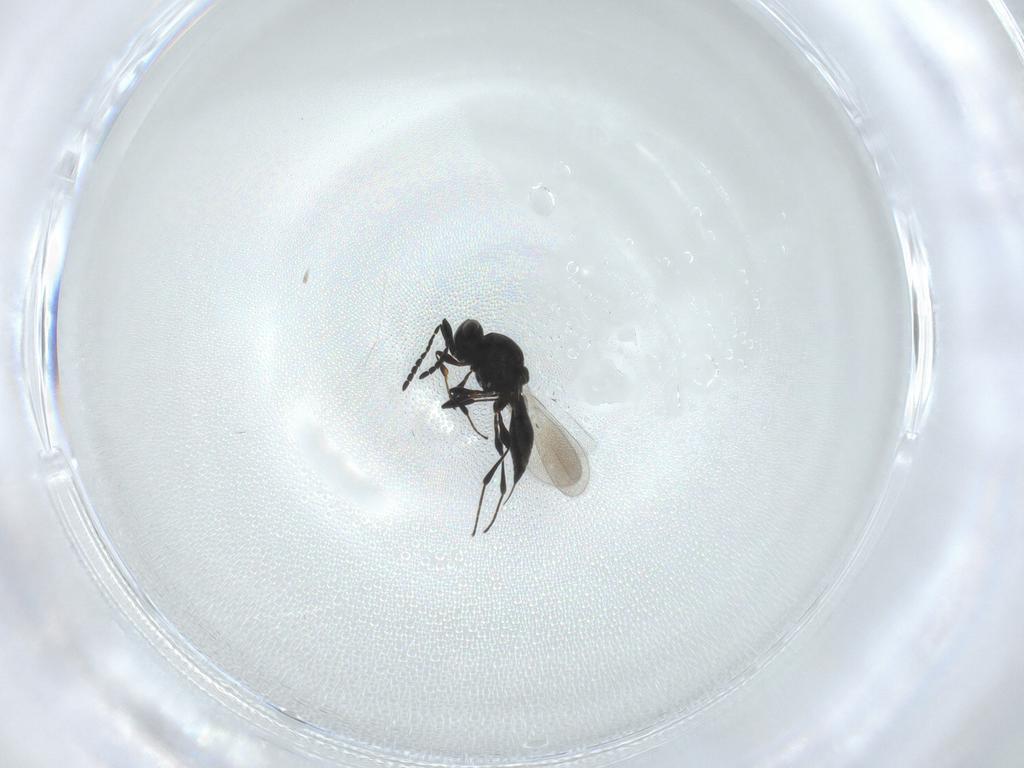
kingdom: Animalia
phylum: Arthropoda
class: Insecta
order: Hymenoptera
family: Platygastridae
